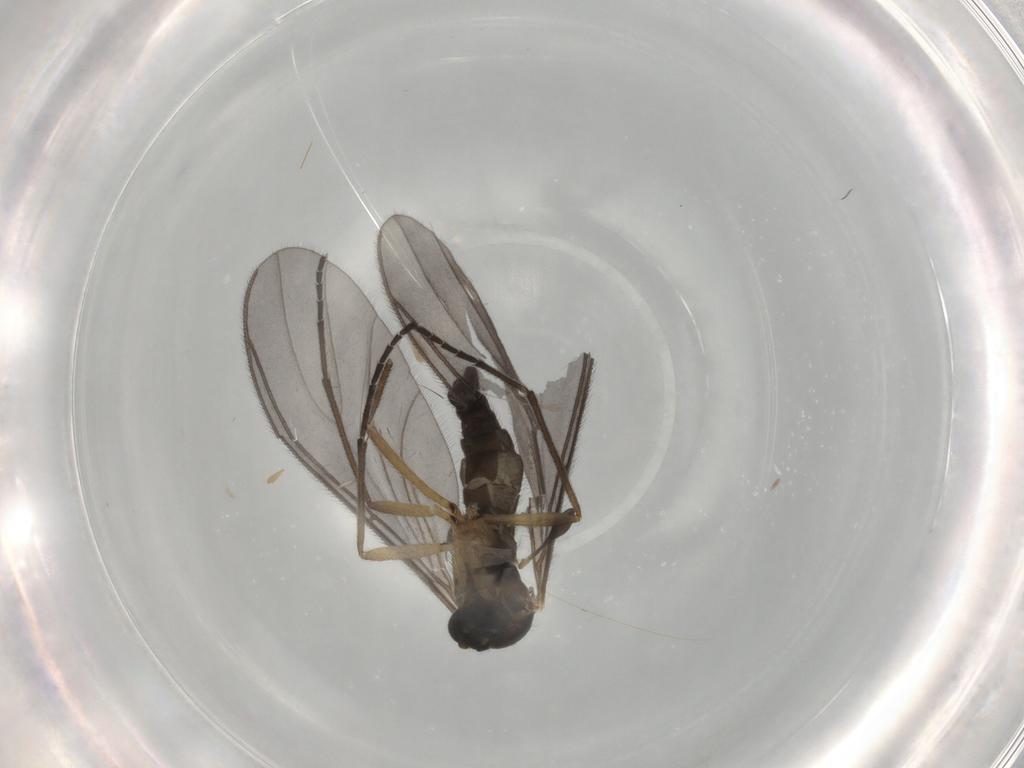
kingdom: Animalia
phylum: Arthropoda
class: Insecta
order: Diptera
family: Sciaridae
